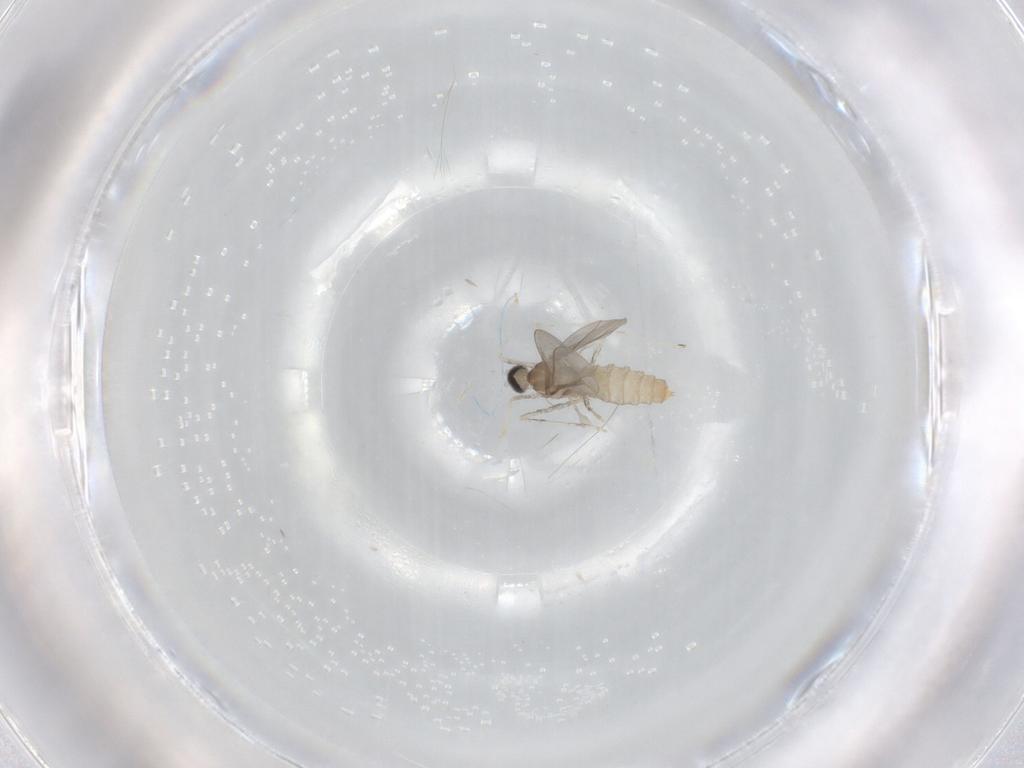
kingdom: Animalia
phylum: Arthropoda
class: Insecta
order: Diptera
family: Cecidomyiidae
